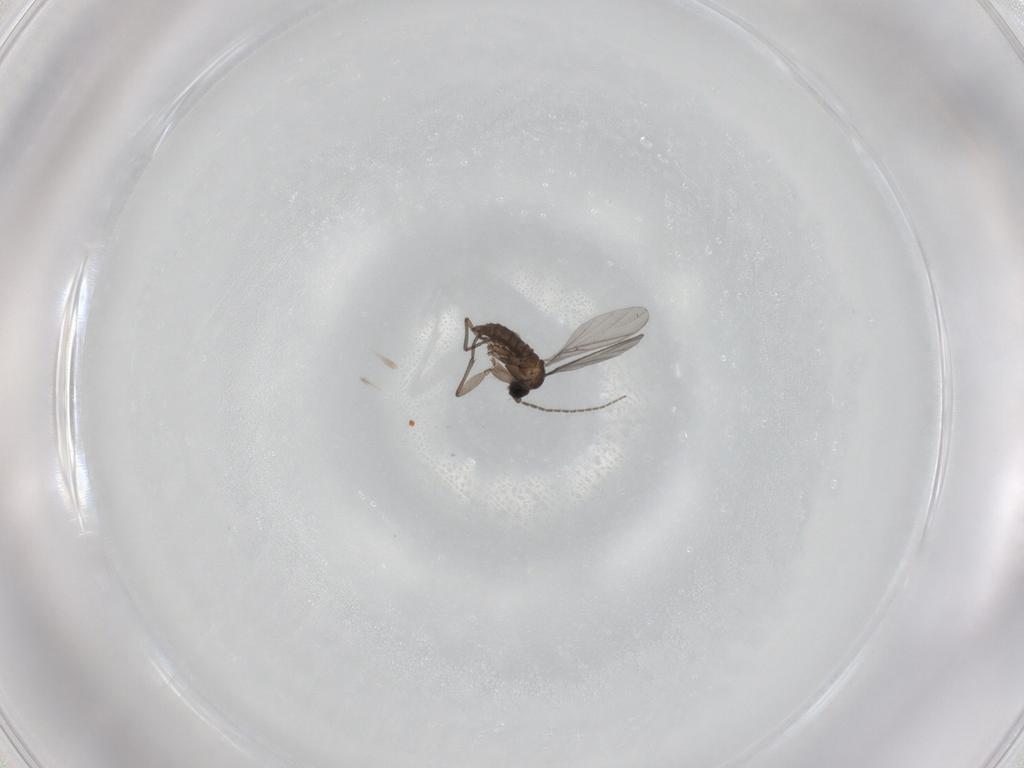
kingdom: Animalia
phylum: Arthropoda
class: Insecta
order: Diptera
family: Sciaridae
